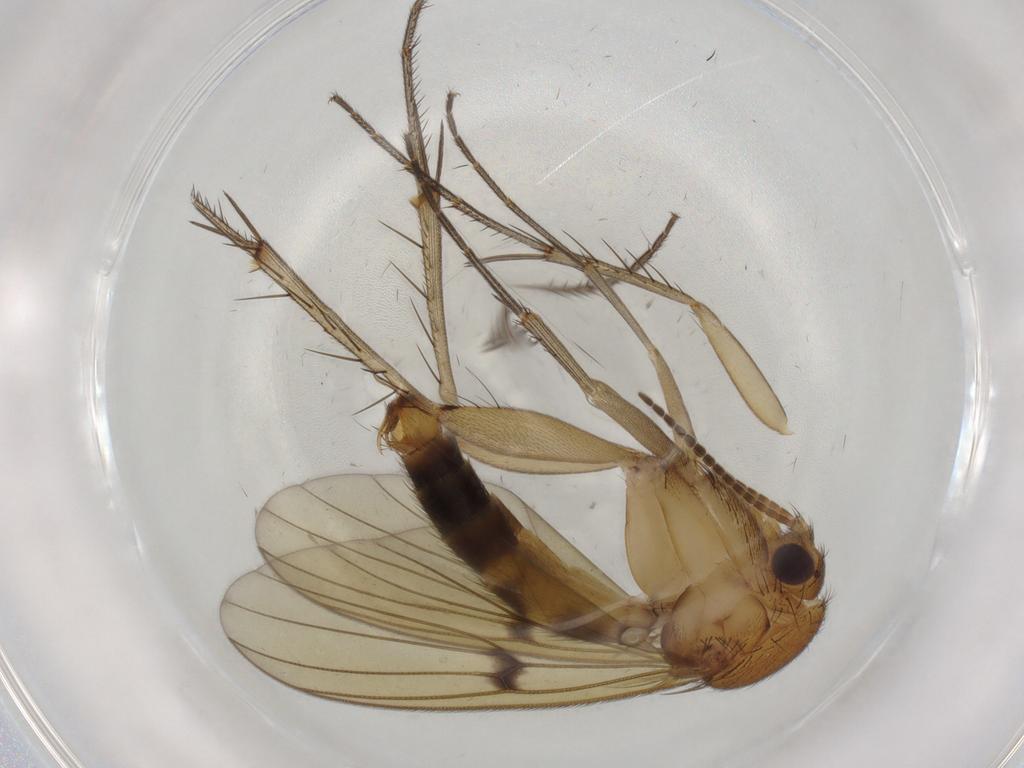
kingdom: Animalia
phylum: Arthropoda
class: Insecta
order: Diptera
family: Mycetophilidae
